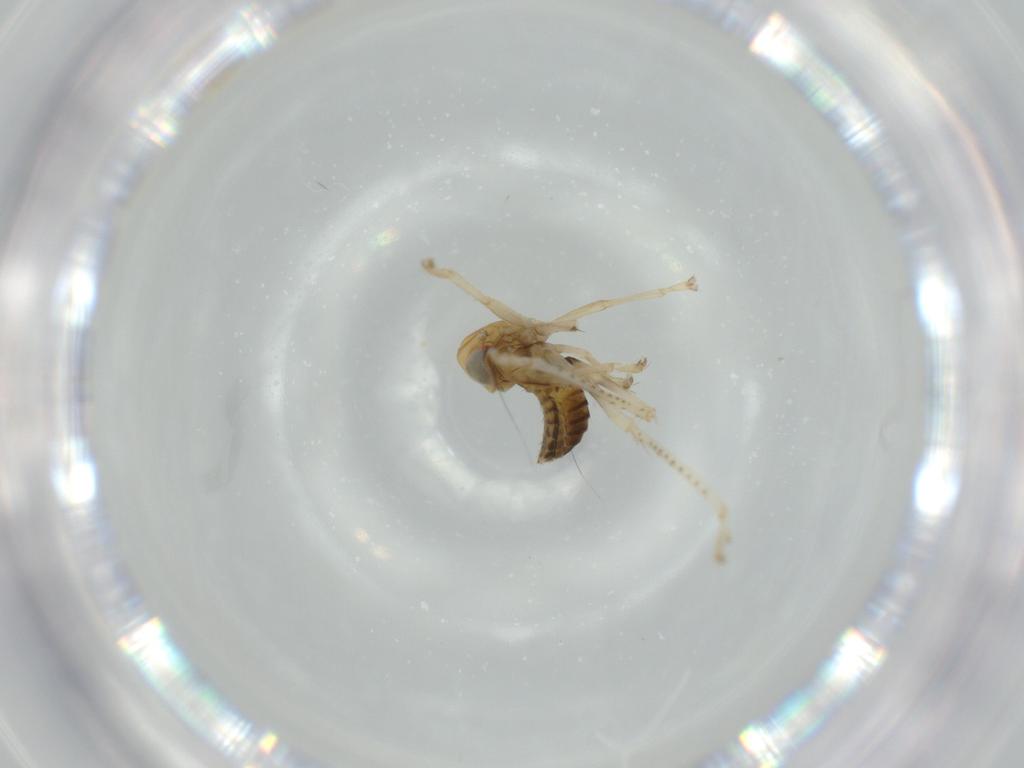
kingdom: Animalia
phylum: Arthropoda
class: Insecta
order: Hemiptera
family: Cicadellidae
